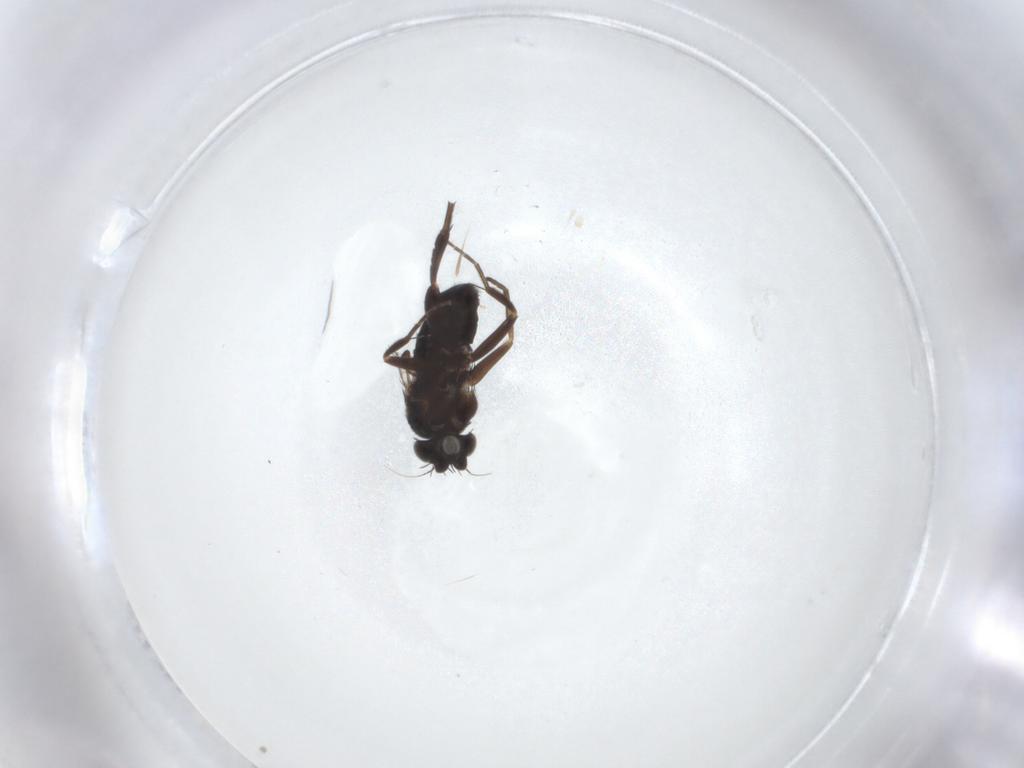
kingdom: Animalia
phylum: Arthropoda
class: Insecta
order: Diptera
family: Phoridae
